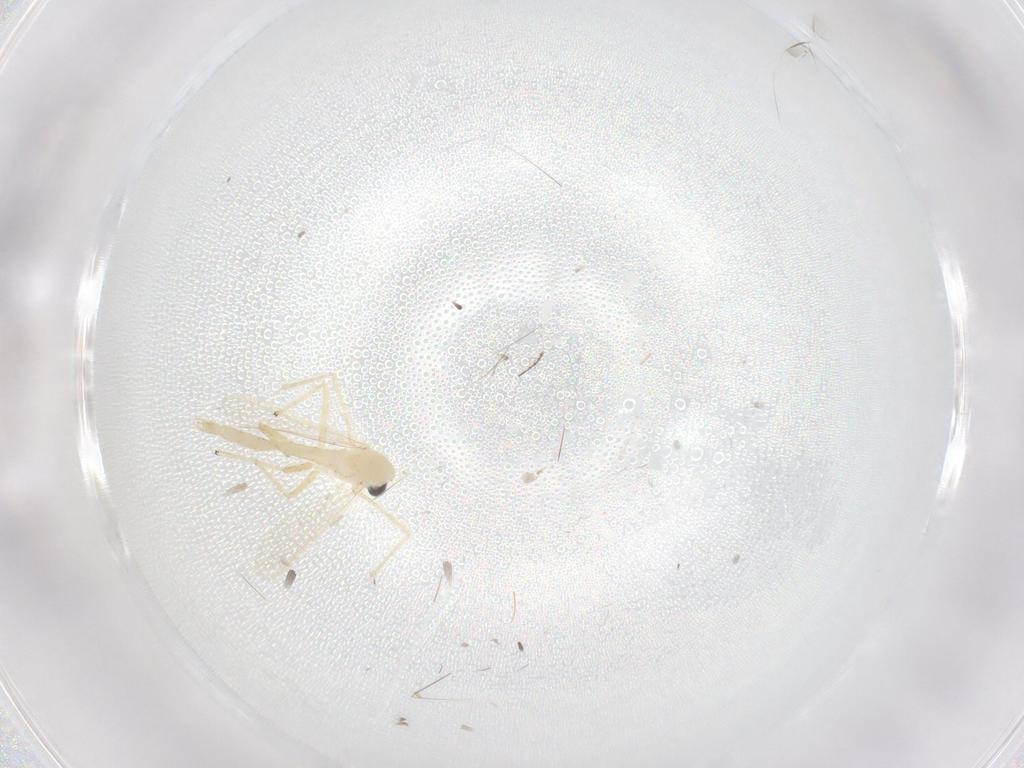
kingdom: Animalia
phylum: Arthropoda
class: Insecta
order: Diptera
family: Chironomidae
